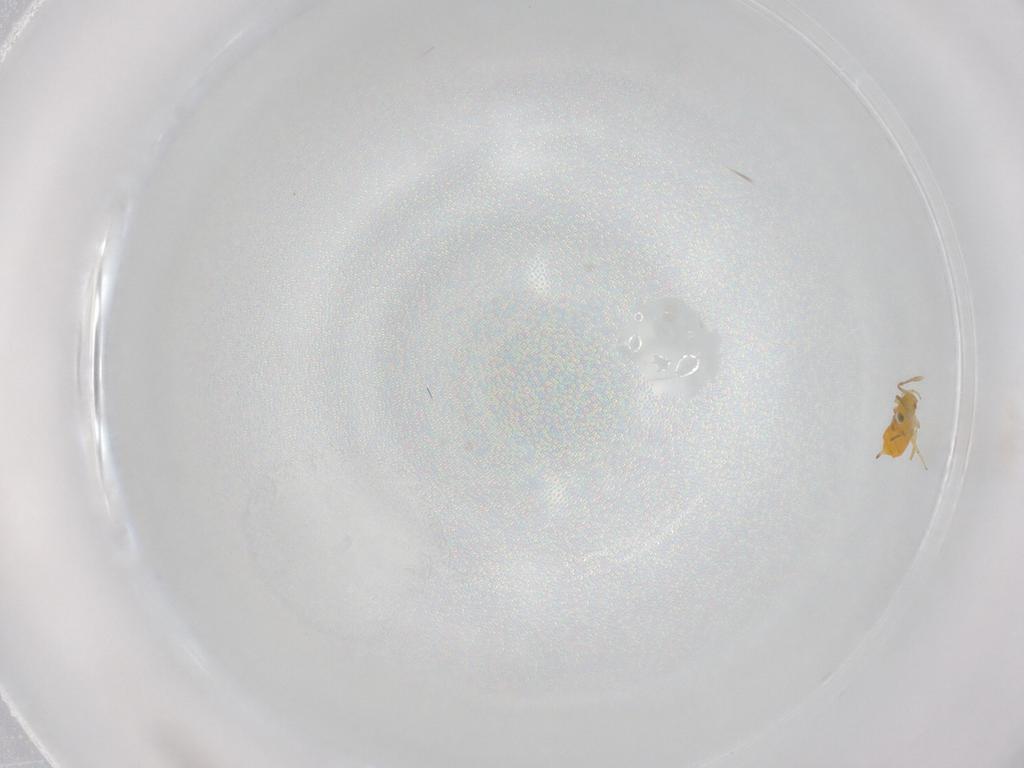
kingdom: Animalia
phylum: Arthropoda
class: Insecta
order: Hymenoptera
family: Encyrtidae
